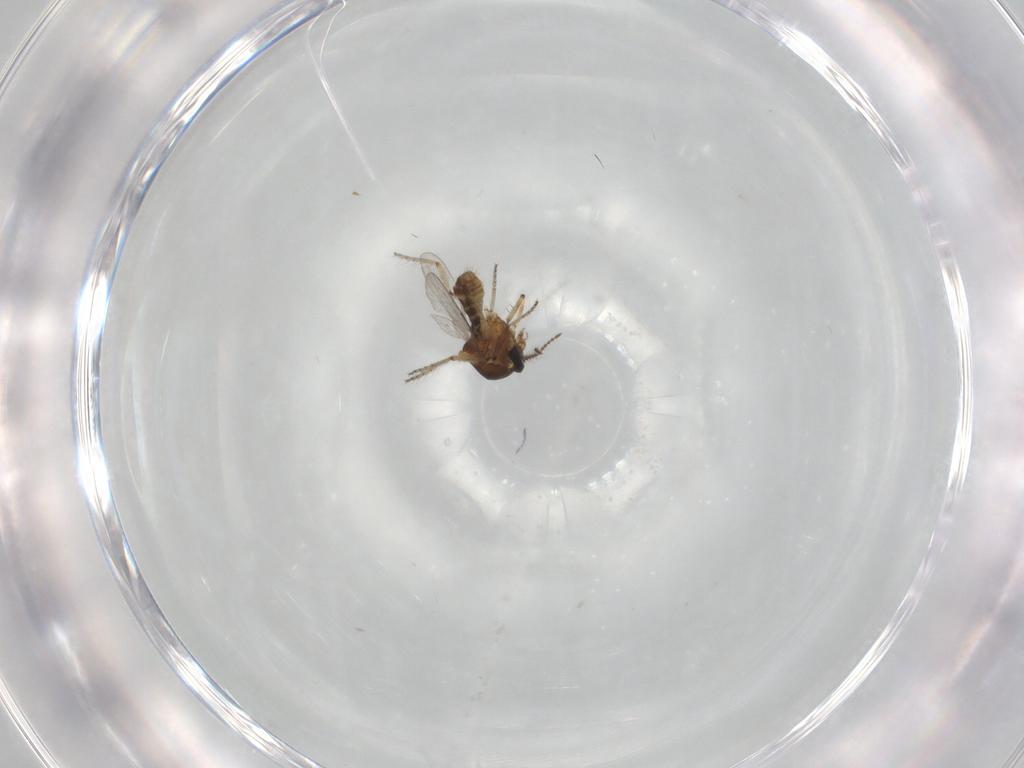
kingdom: Animalia
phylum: Arthropoda
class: Insecta
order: Diptera
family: Ceratopogonidae
